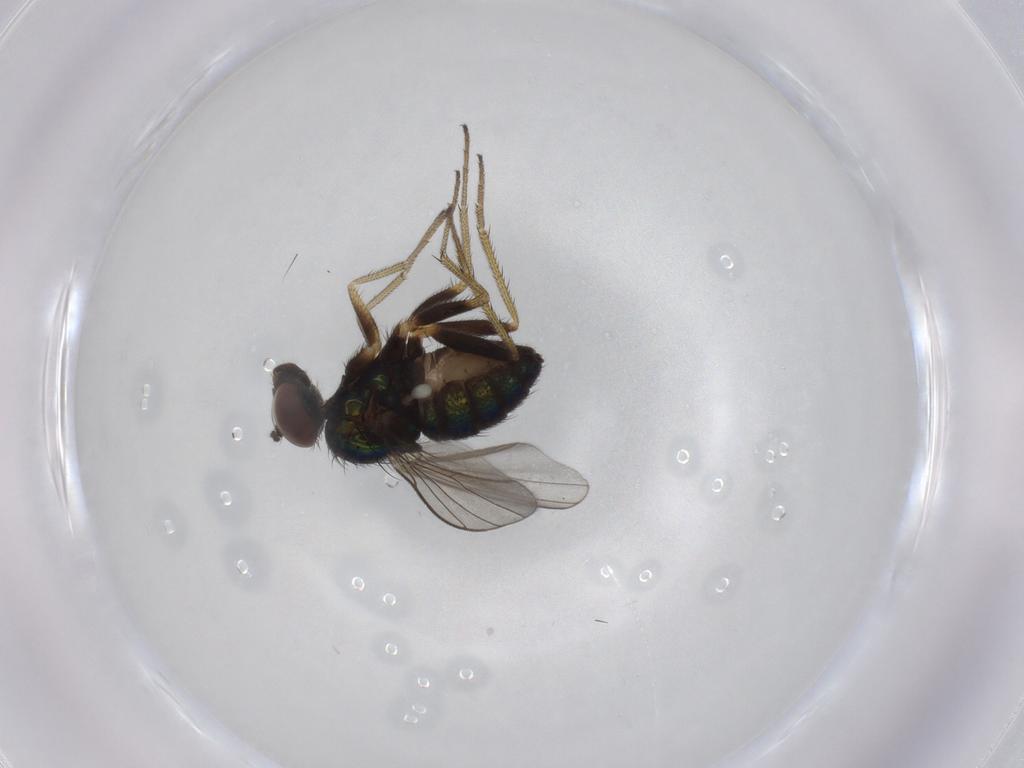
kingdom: Animalia
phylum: Arthropoda
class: Insecta
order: Diptera
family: Dolichopodidae
